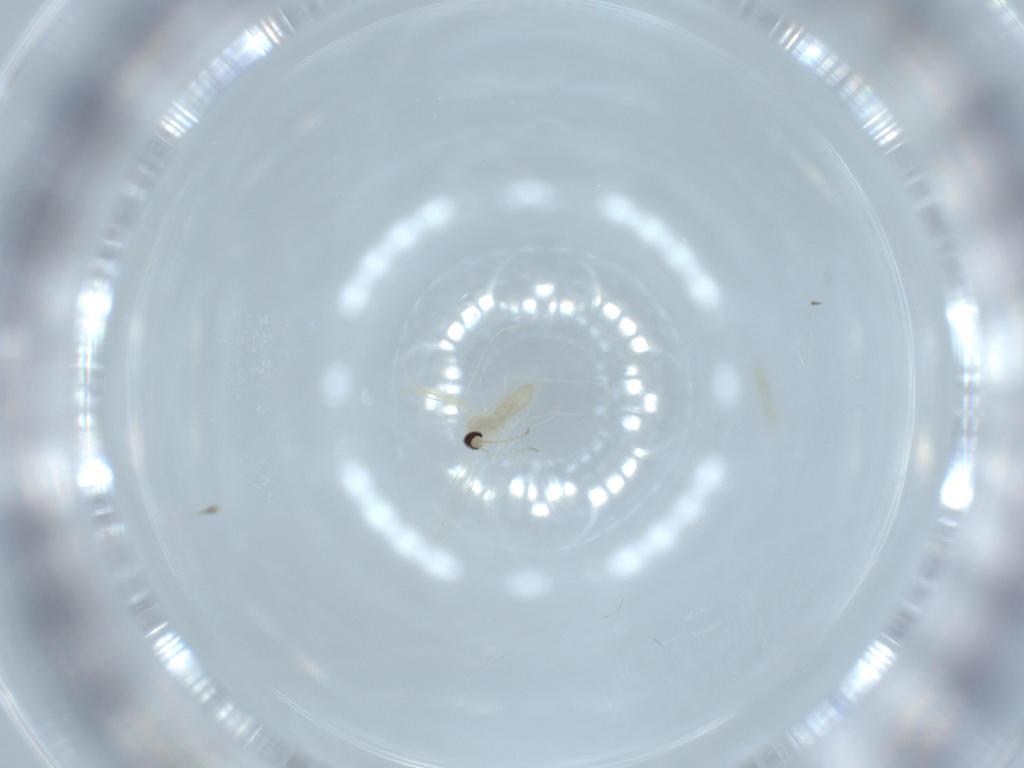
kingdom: Animalia
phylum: Arthropoda
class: Insecta
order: Diptera
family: Cecidomyiidae
